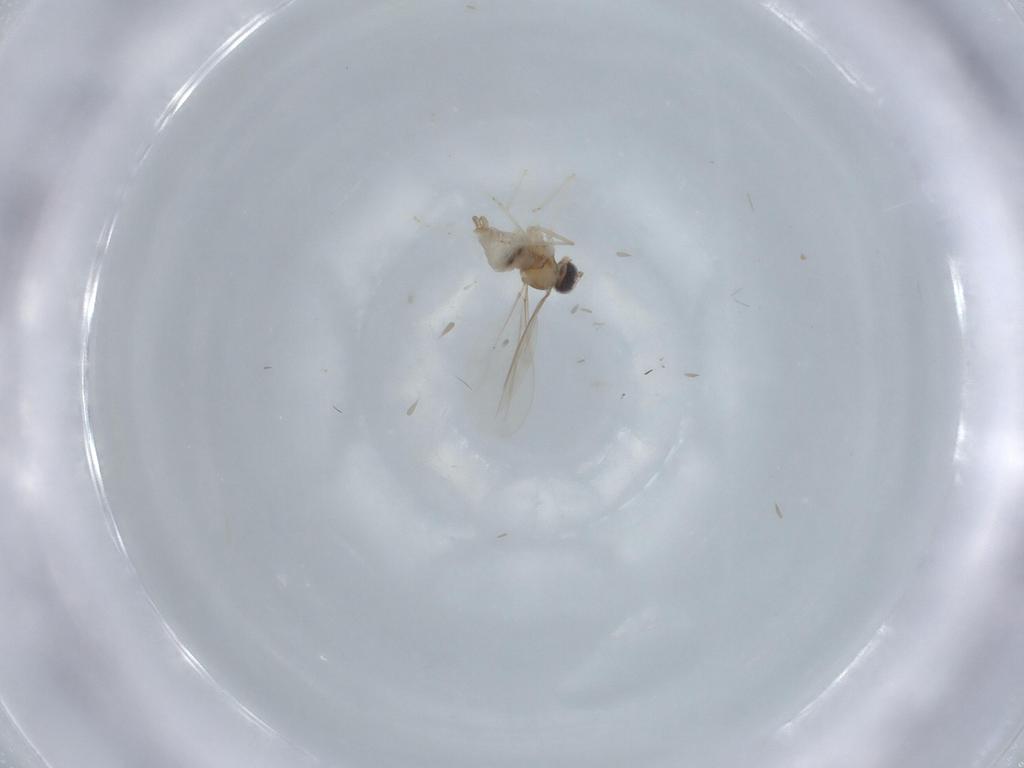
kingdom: Animalia
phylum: Arthropoda
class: Insecta
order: Diptera
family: Cecidomyiidae
